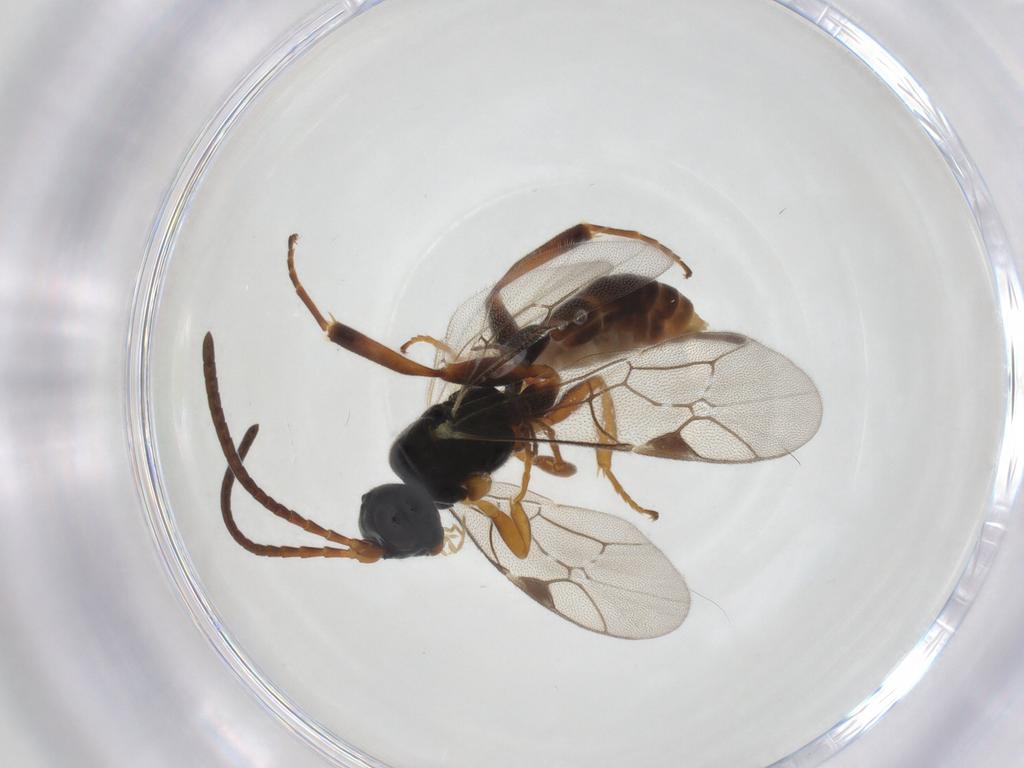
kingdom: Animalia
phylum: Arthropoda
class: Insecta
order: Hymenoptera
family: Ichneumonidae
